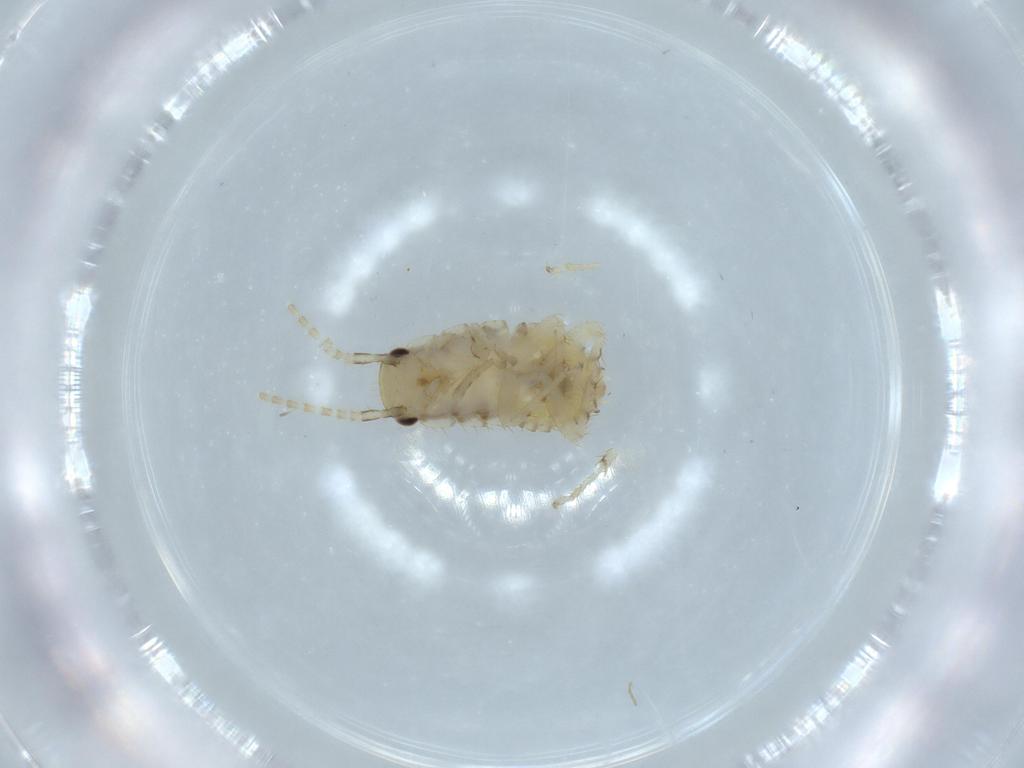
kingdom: Animalia
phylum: Arthropoda
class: Insecta
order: Blattodea
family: Ectobiidae
